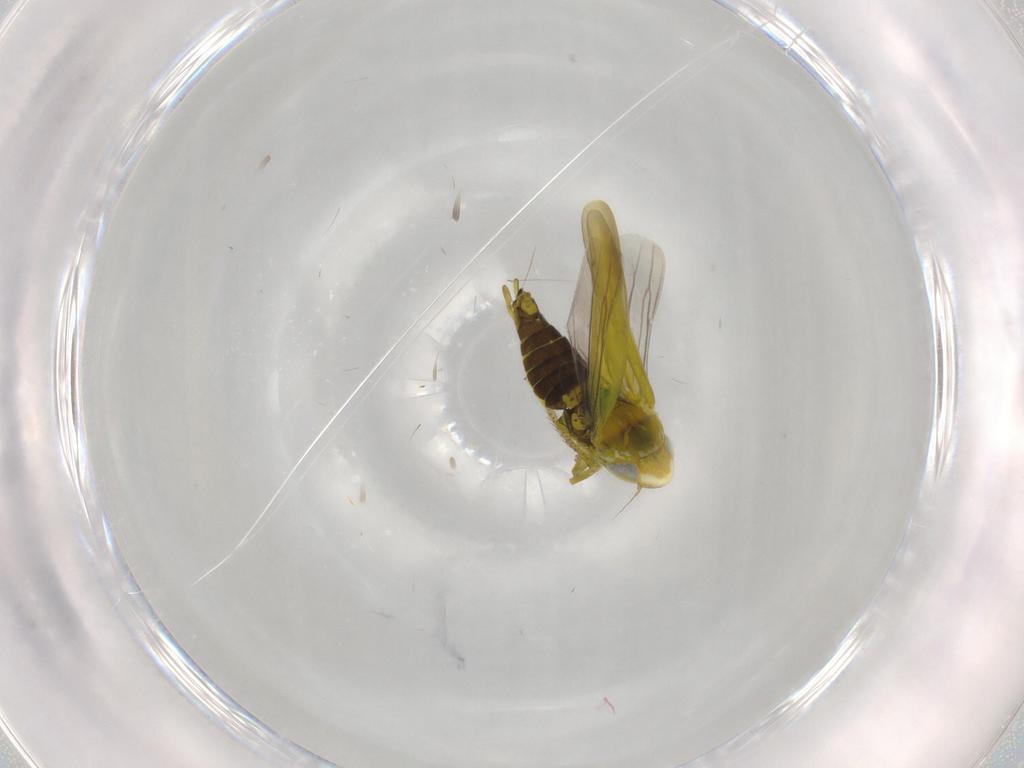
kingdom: Animalia
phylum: Arthropoda
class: Insecta
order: Hemiptera
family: Cicadellidae
